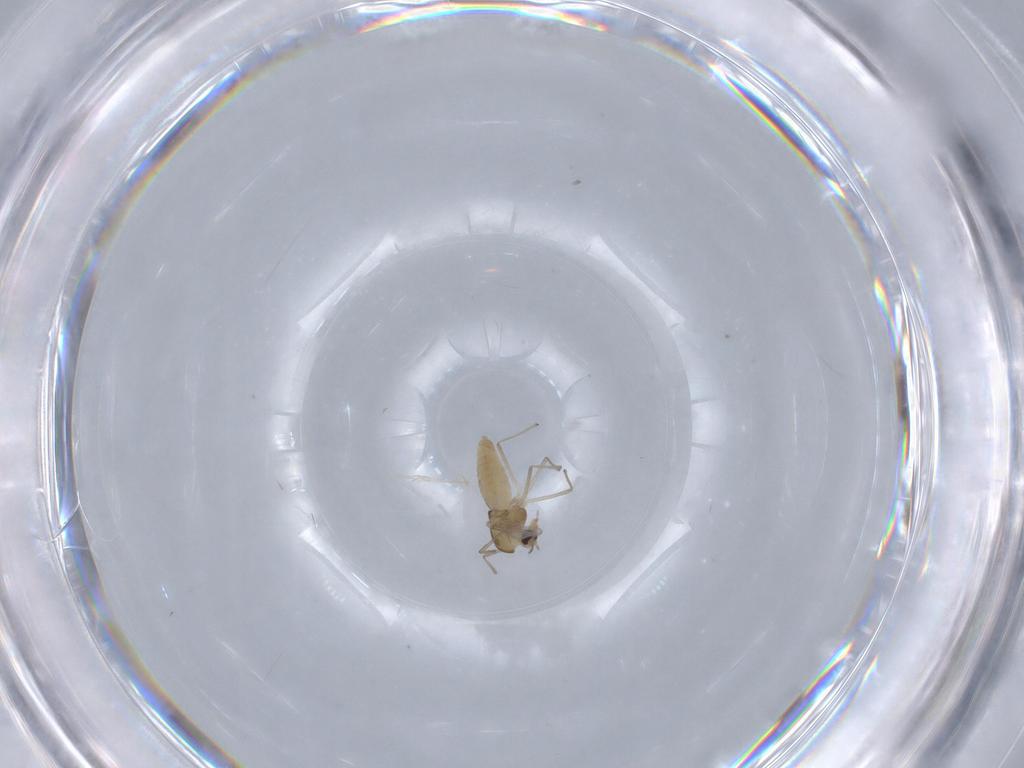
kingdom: Animalia
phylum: Arthropoda
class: Insecta
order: Diptera
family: Chironomidae
